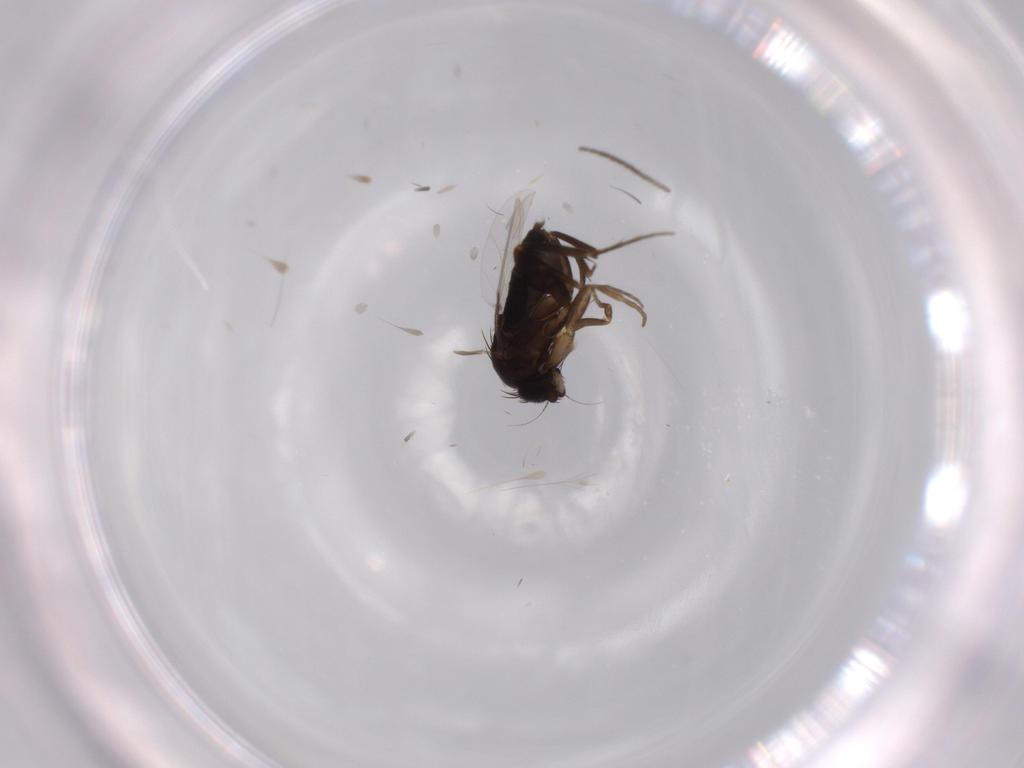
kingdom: Animalia
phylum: Arthropoda
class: Insecta
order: Diptera
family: Phoridae
